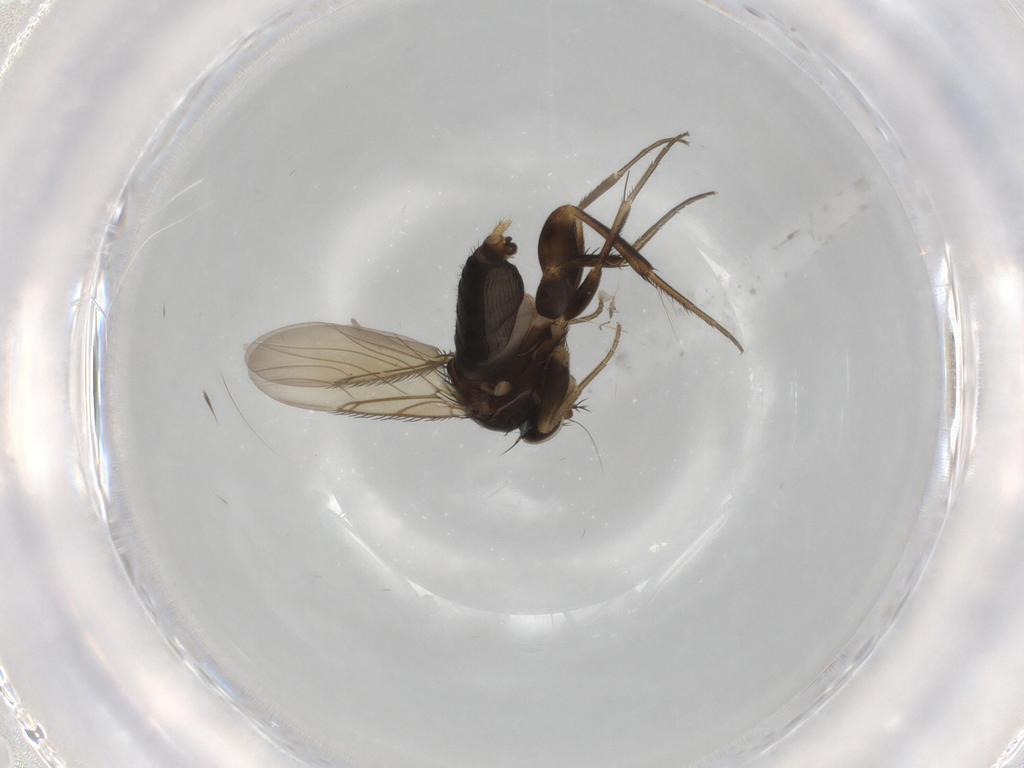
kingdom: Animalia
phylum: Arthropoda
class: Insecta
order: Diptera
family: Phoridae
